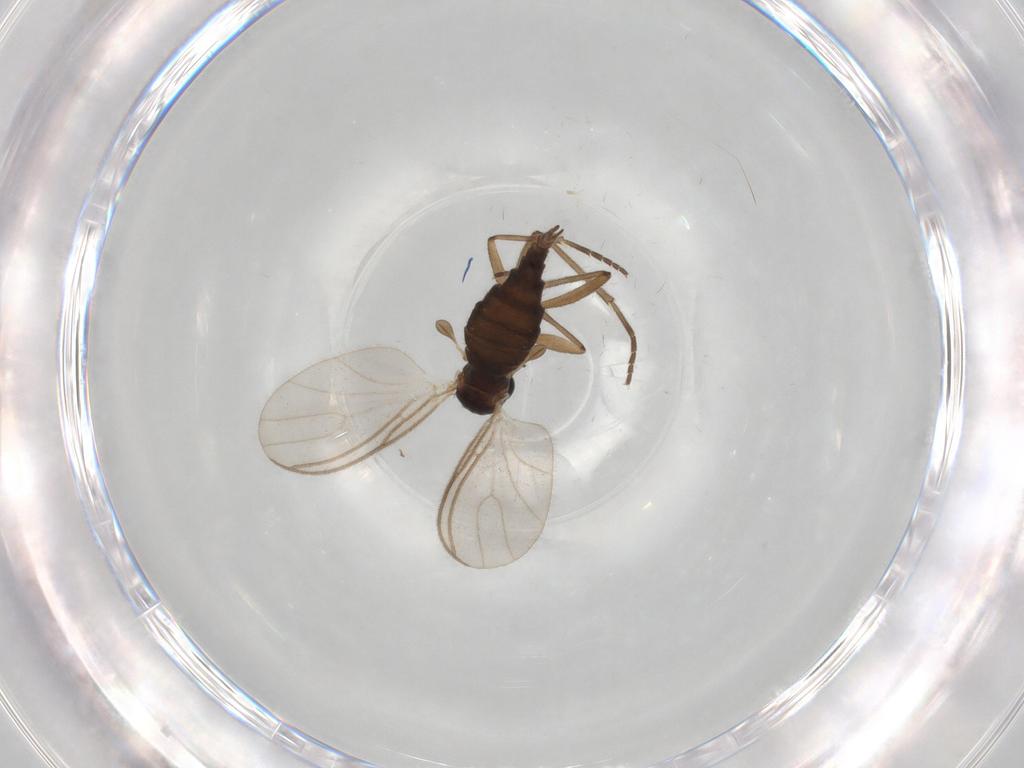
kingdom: Animalia
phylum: Arthropoda
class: Insecta
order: Diptera
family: Sciaridae
